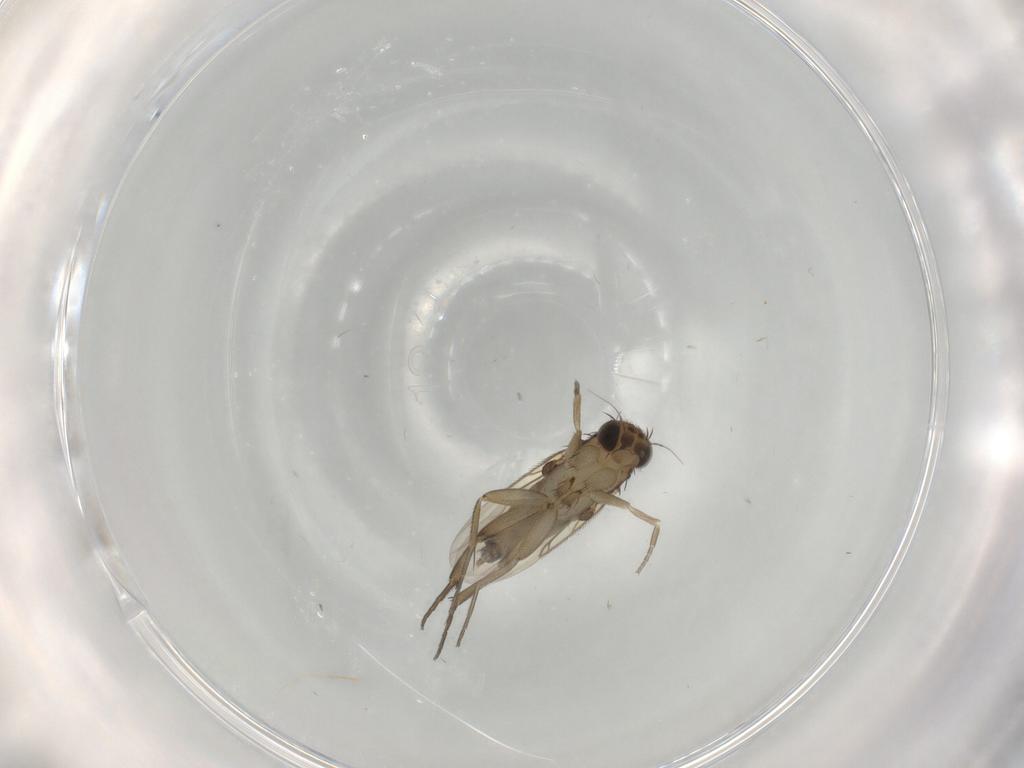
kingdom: Animalia
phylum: Arthropoda
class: Insecta
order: Diptera
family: Phoridae
